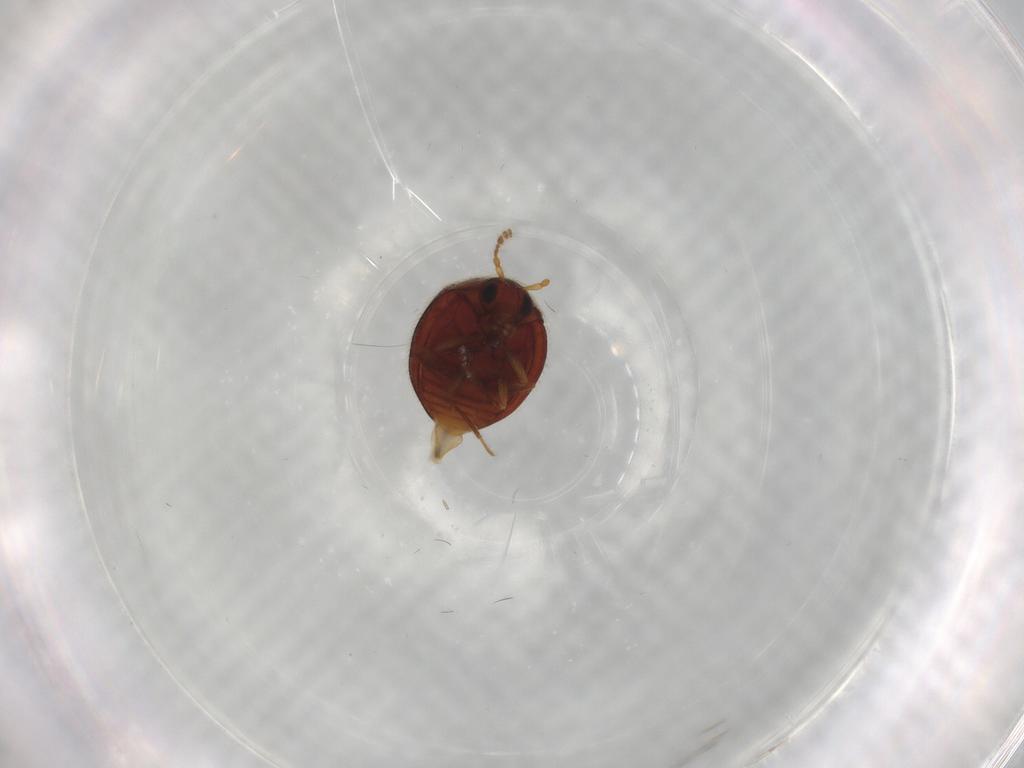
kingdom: Animalia
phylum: Arthropoda
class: Insecta
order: Coleoptera
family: Anamorphidae
